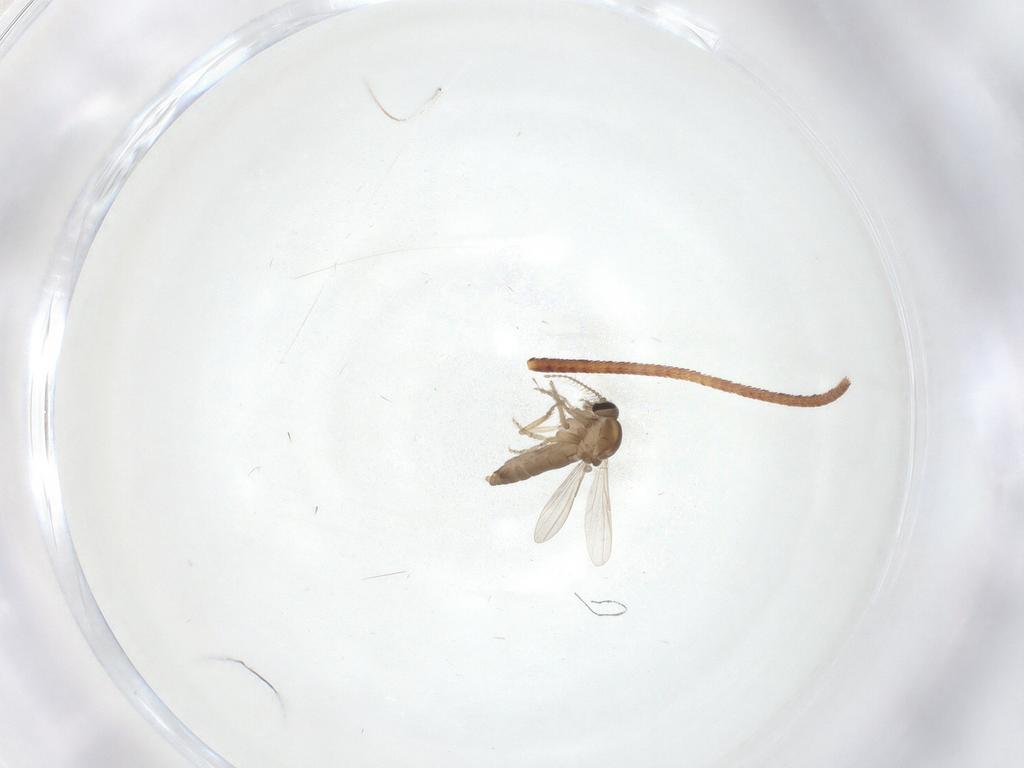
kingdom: Animalia
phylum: Arthropoda
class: Insecta
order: Diptera
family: Ceratopogonidae
